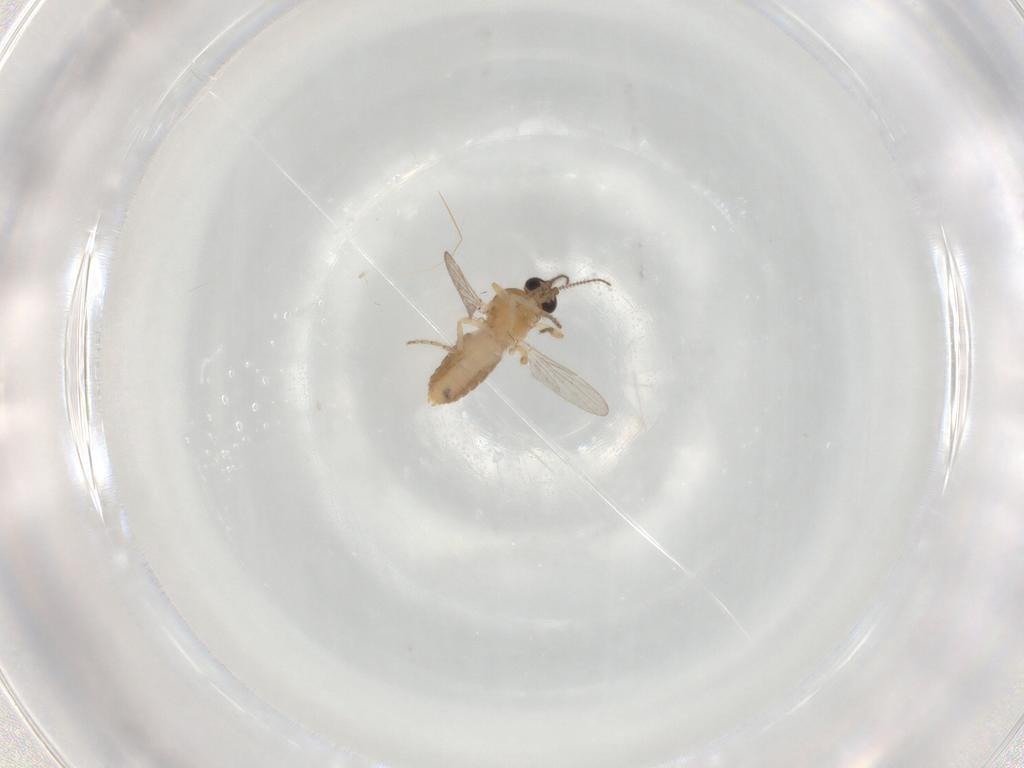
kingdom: Animalia
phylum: Arthropoda
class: Insecta
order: Diptera
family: Ceratopogonidae
